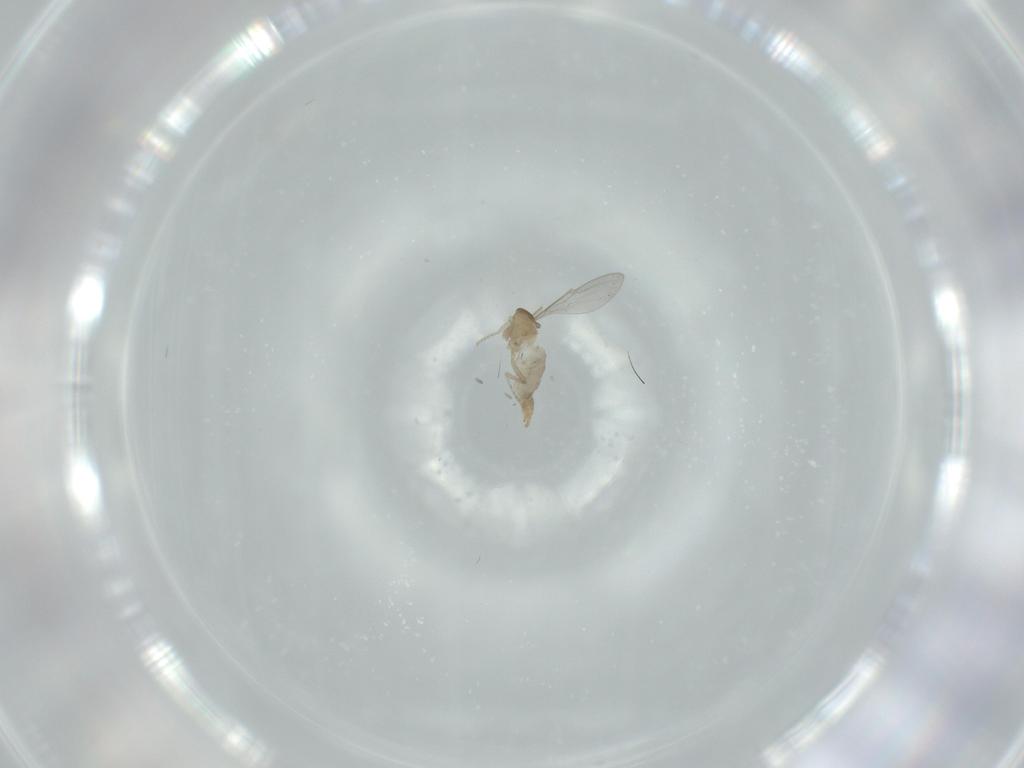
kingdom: Animalia
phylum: Arthropoda
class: Insecta
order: Diptera
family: Cecidomyiidae
